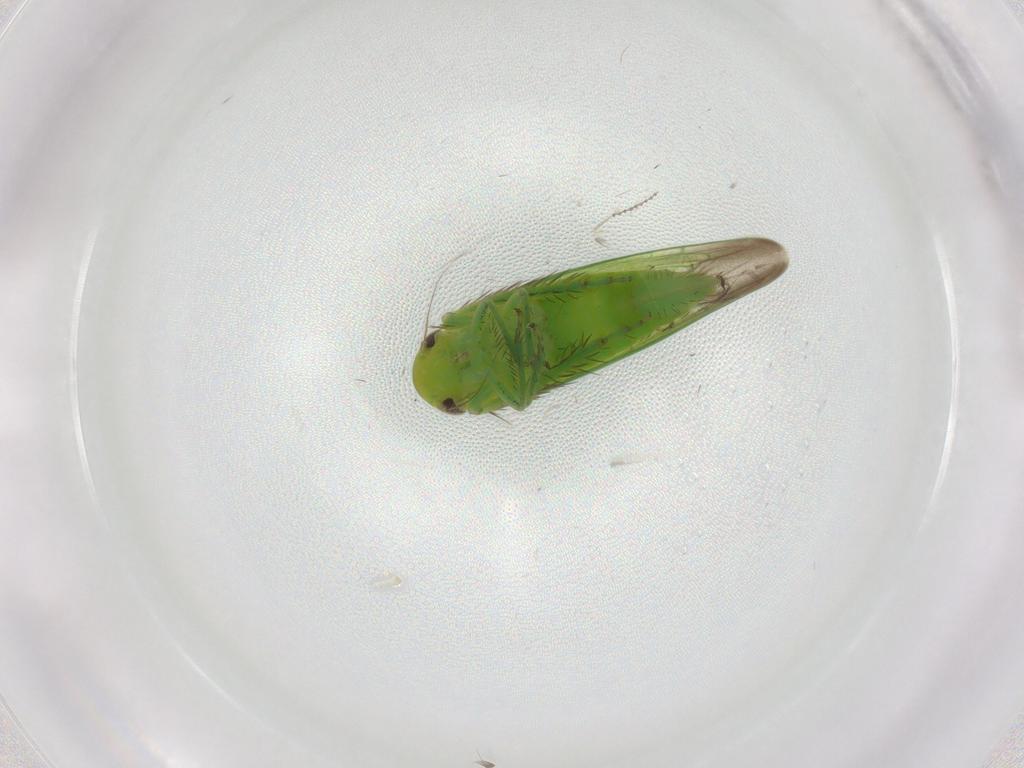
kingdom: Animalia
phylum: Arthropoda
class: Insecta
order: Hemiptera
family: Cicadellidae
